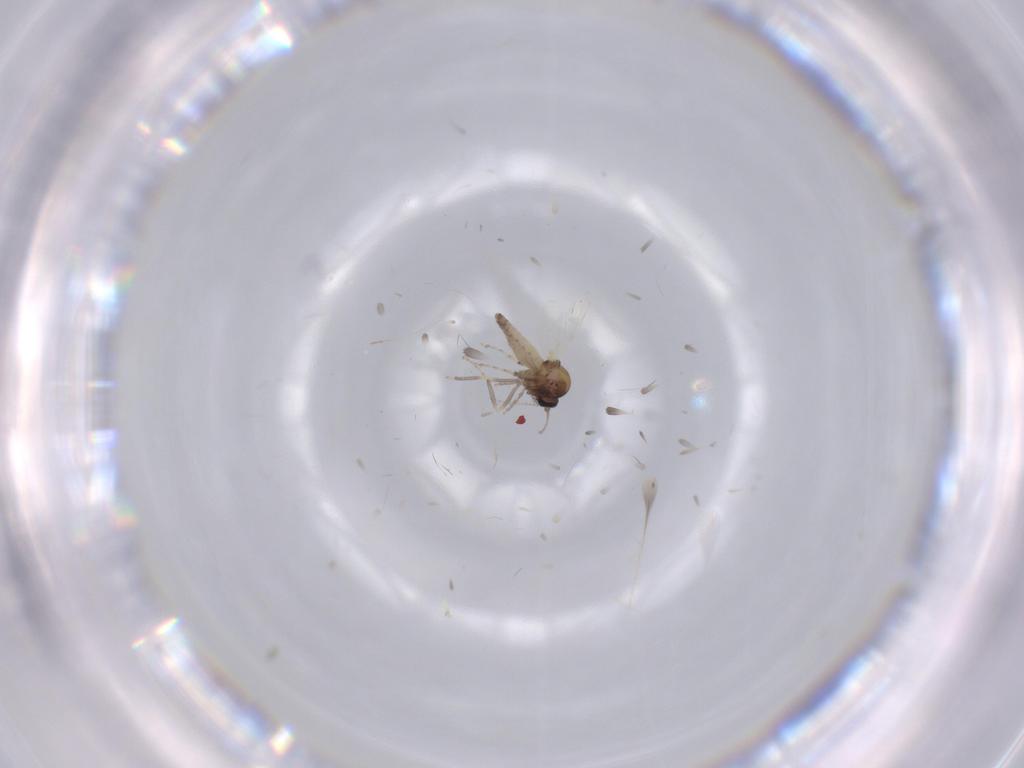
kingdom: Animalia
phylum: Arthropoda
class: Insecta
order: Diptera
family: Ceratopogonidae
